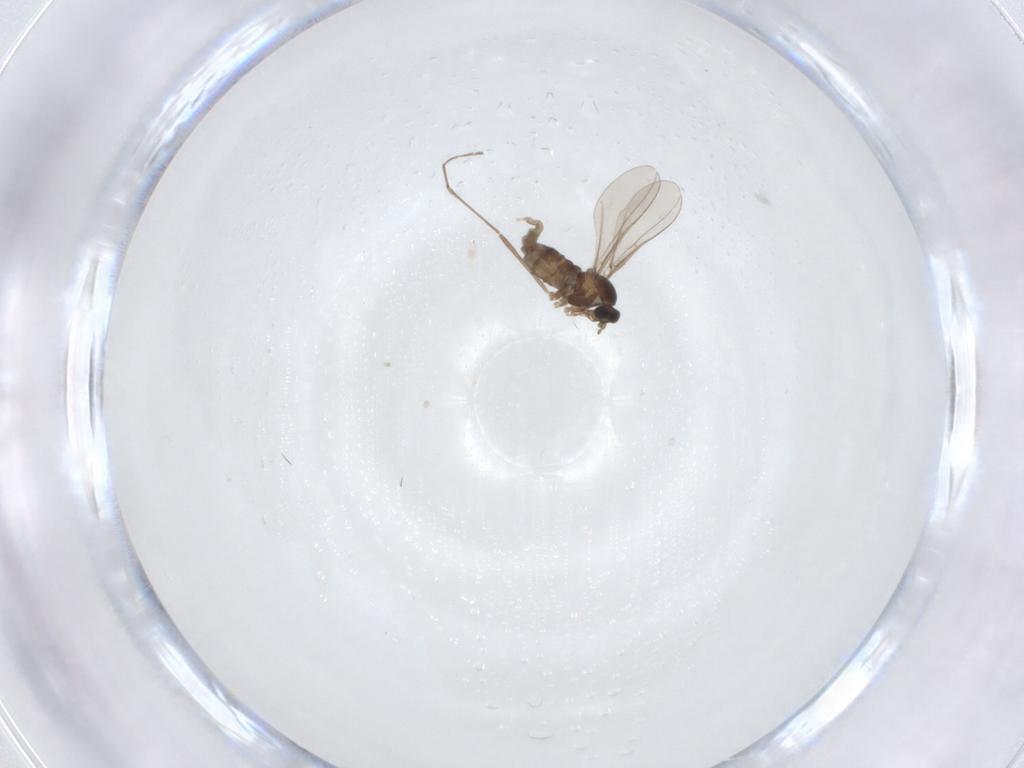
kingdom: Animalia
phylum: Arthropoda
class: Insecta
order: Diptera
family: Cecidomyiidae
